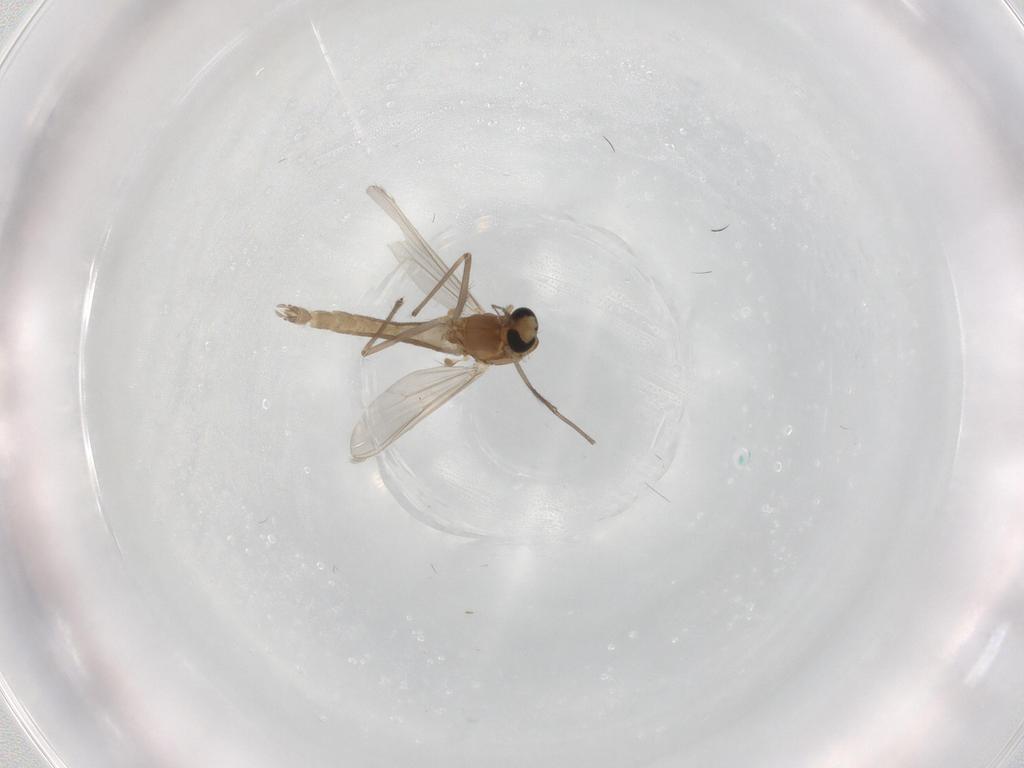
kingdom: Animalia
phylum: Arthropoda
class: Insecta
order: Diptera
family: Chironomidae
